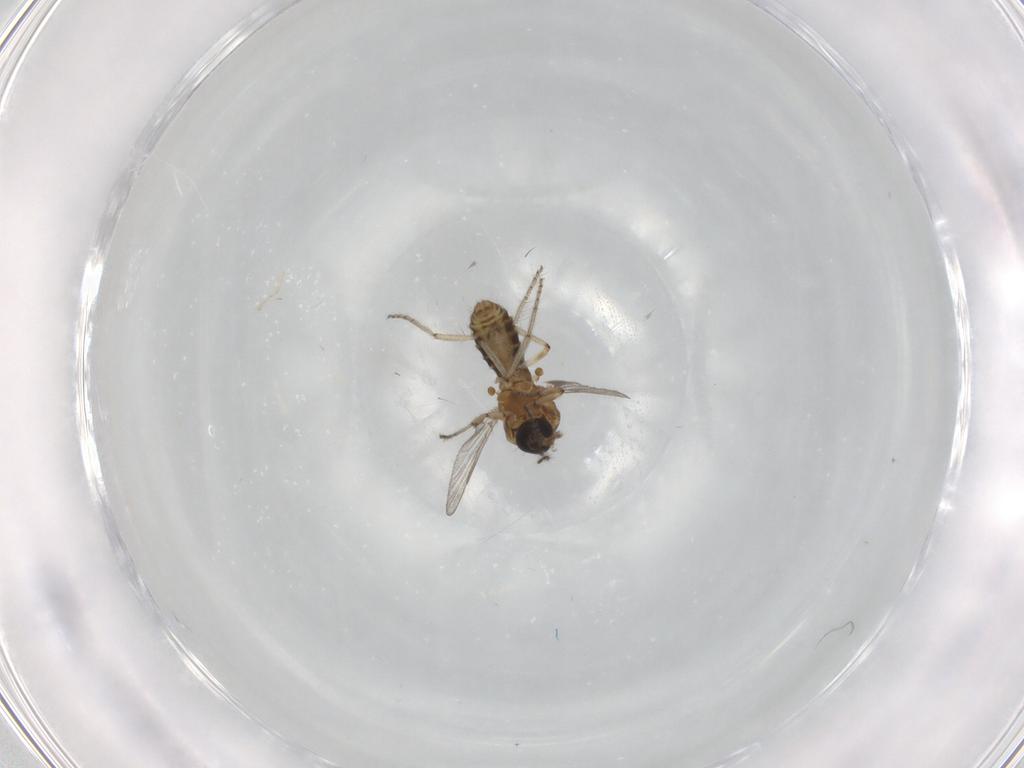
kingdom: Animalia
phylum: Arthropoda
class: Insecta
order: Diptera
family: Ceratopogonidae
